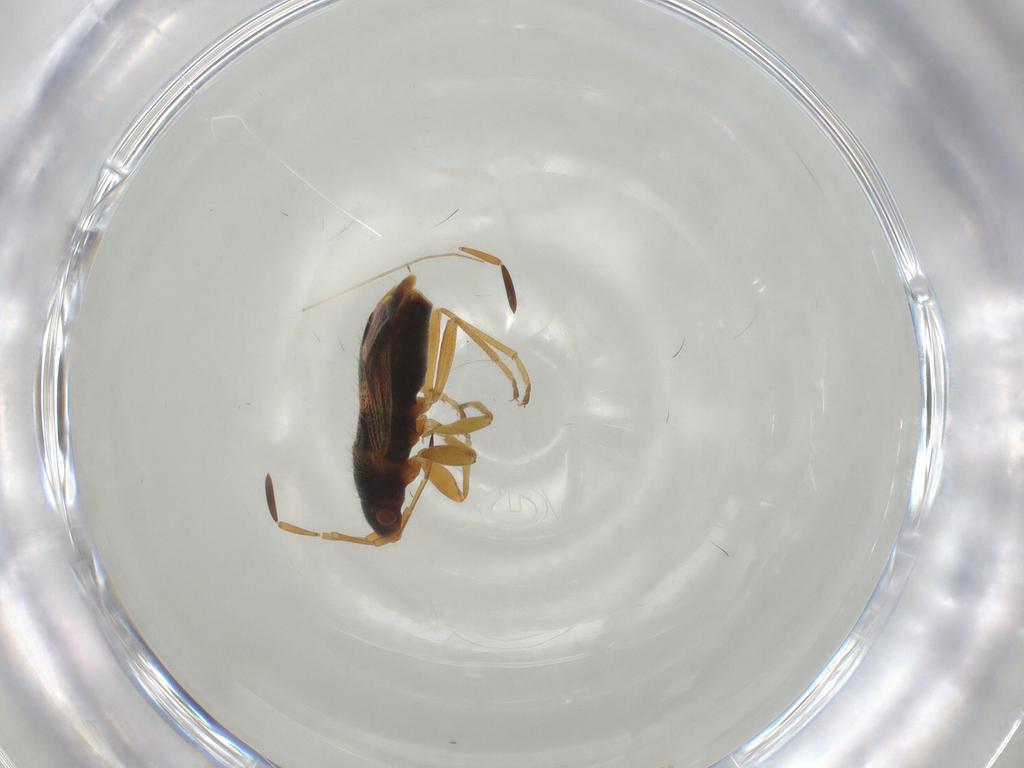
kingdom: Animalia
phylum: Arthropoda
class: Insecta
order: Hemiptera
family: Rhyparochromidae
